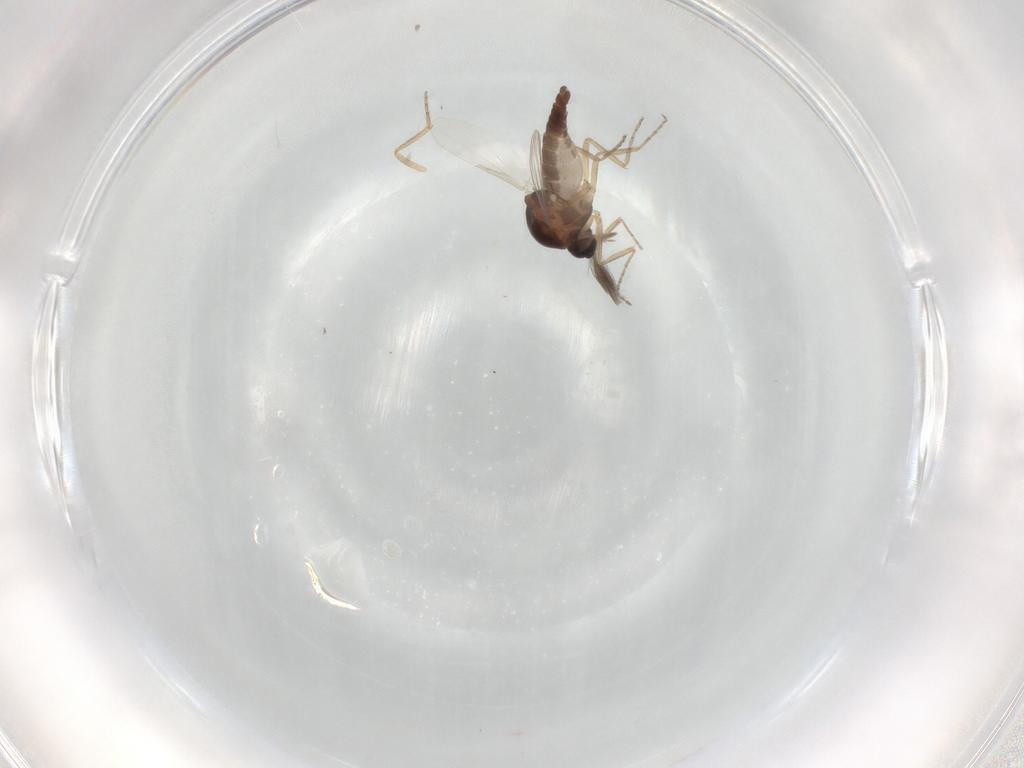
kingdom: Animalia
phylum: Arthropoda
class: Insecta
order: Diptera
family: Ceratopogonidae
